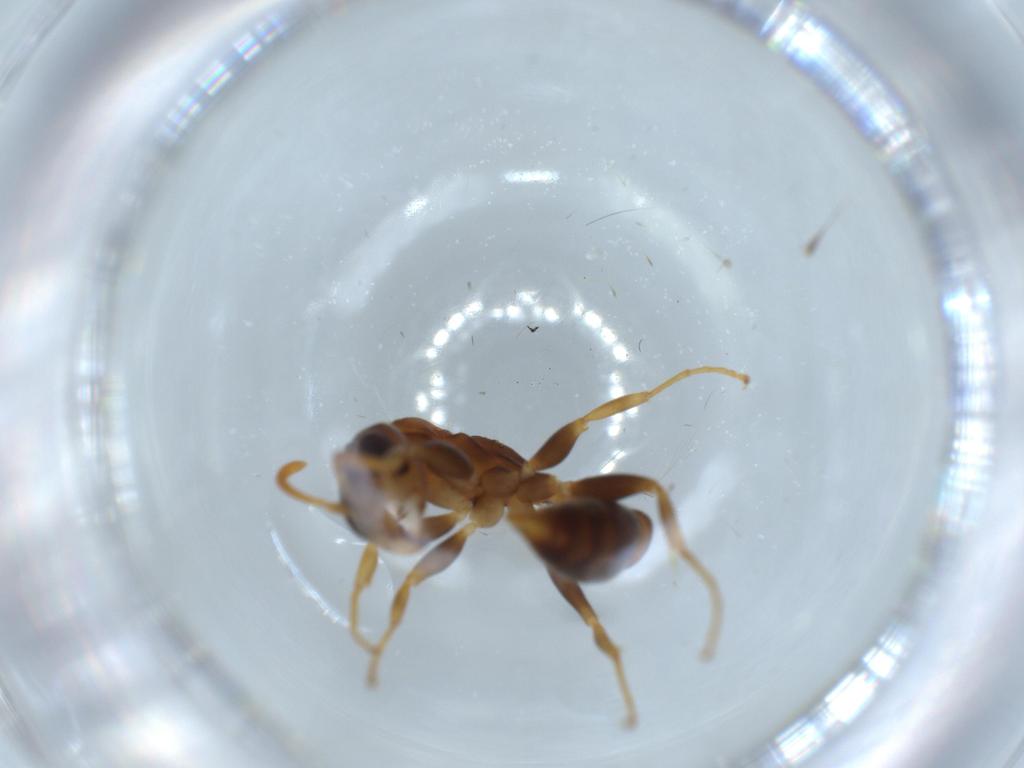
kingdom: Animalia
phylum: Arthropoda
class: Insecta
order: Hymenoptera
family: Formicidae
